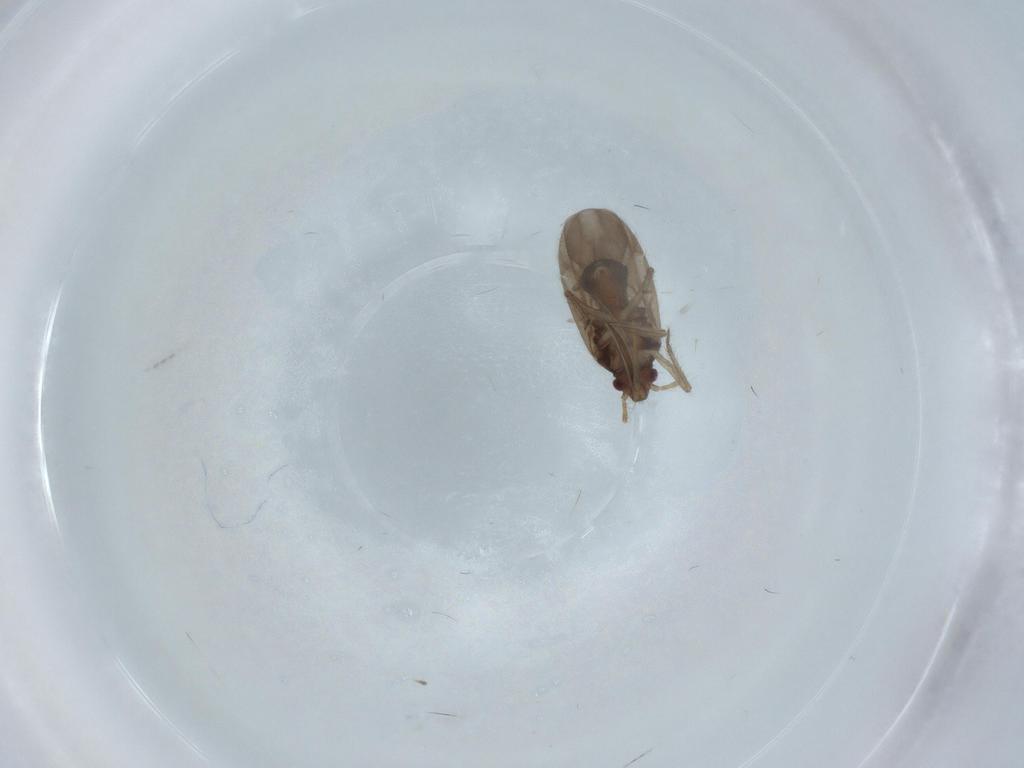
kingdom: Animalia
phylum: Arthropoda
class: Insecta
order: Hemiptera
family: Ceratocombidae
